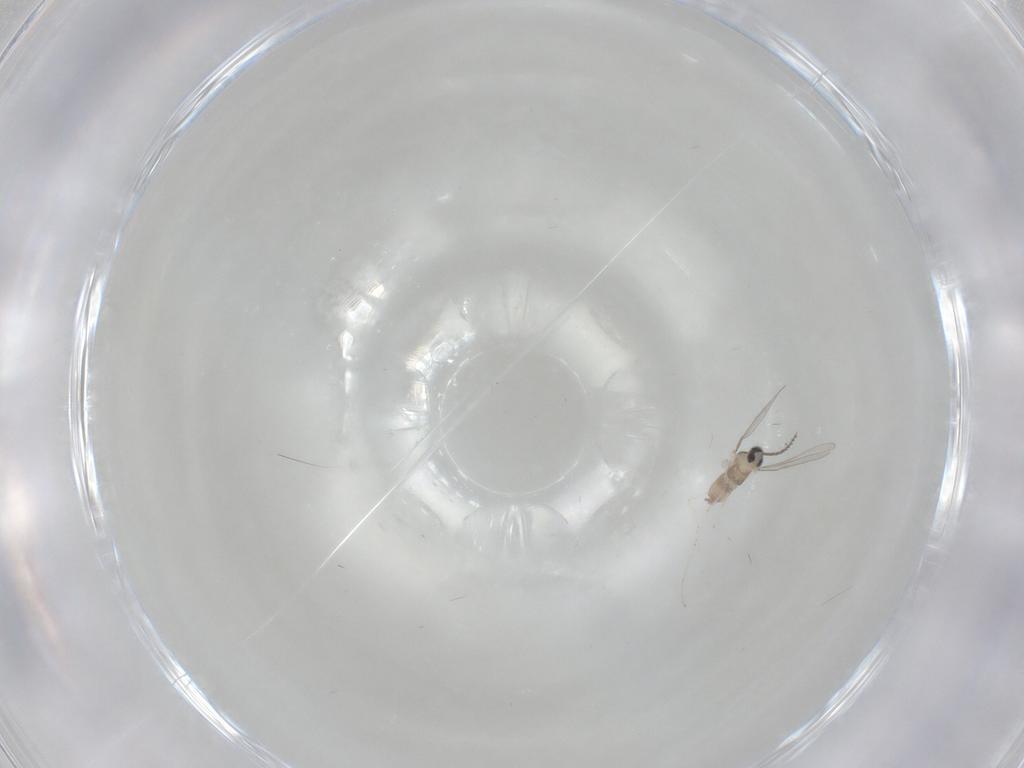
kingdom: Animalia
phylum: Arthropoda
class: Insecta
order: Diptera
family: Cecidomyiidae
